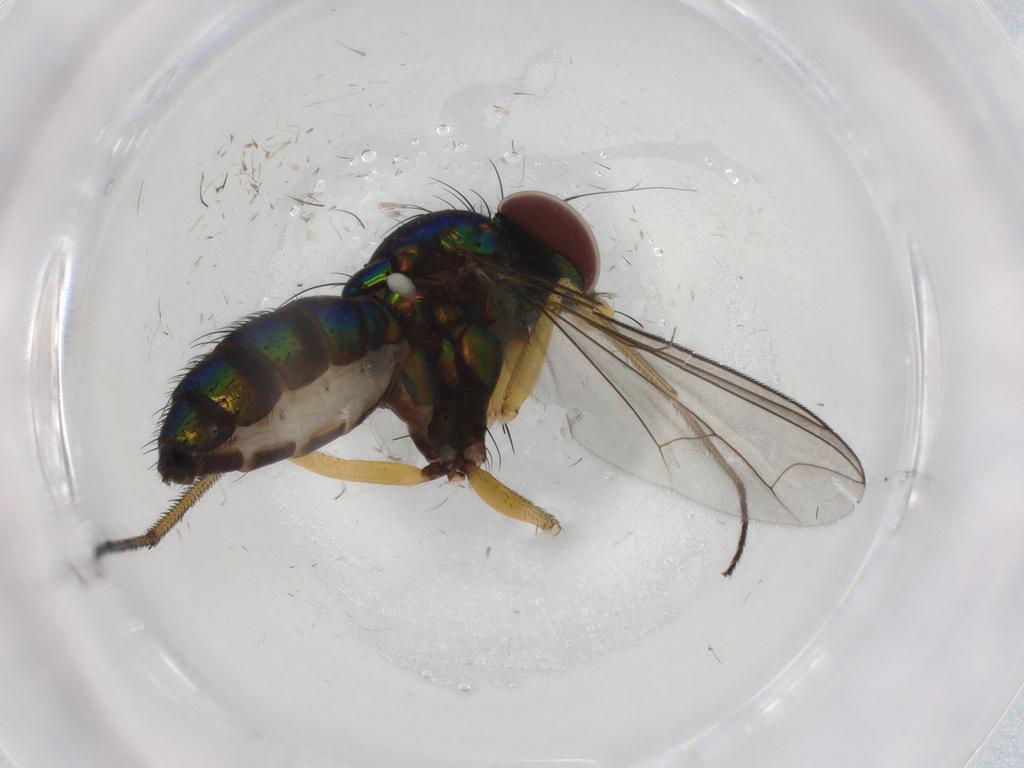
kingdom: Animalia
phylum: Arthropoda
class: Insecta
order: Diptera
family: Dolichopodidae
